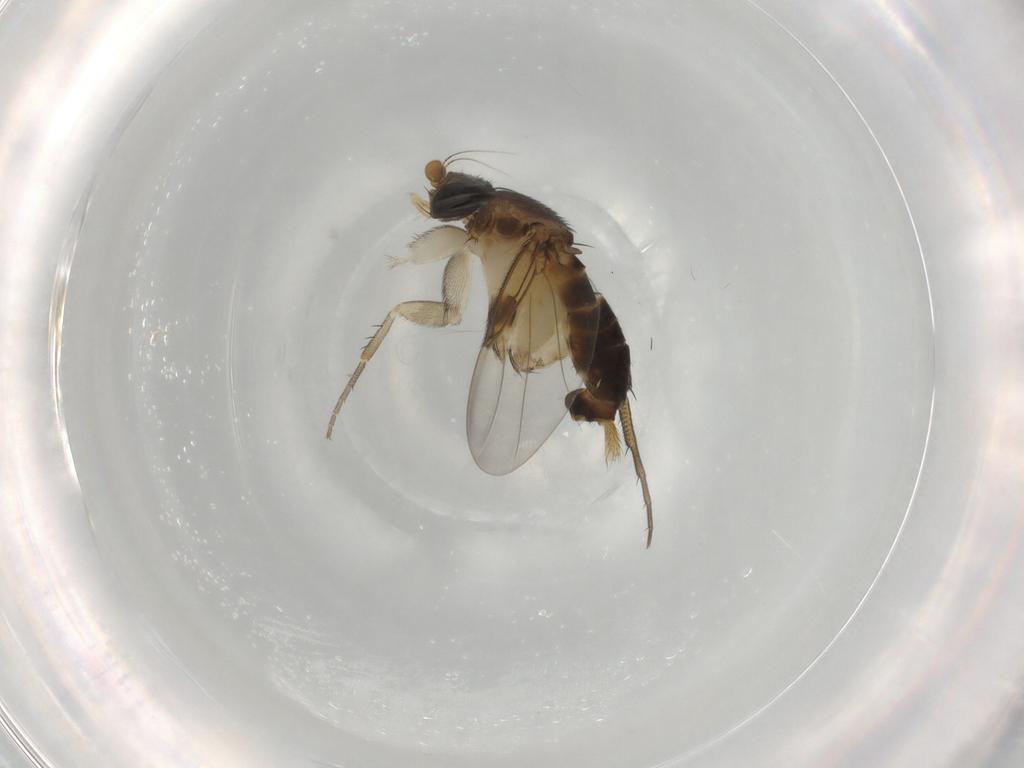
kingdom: Animalia
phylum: Arthropoda
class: Insecta
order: Diptera
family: Phoridae
